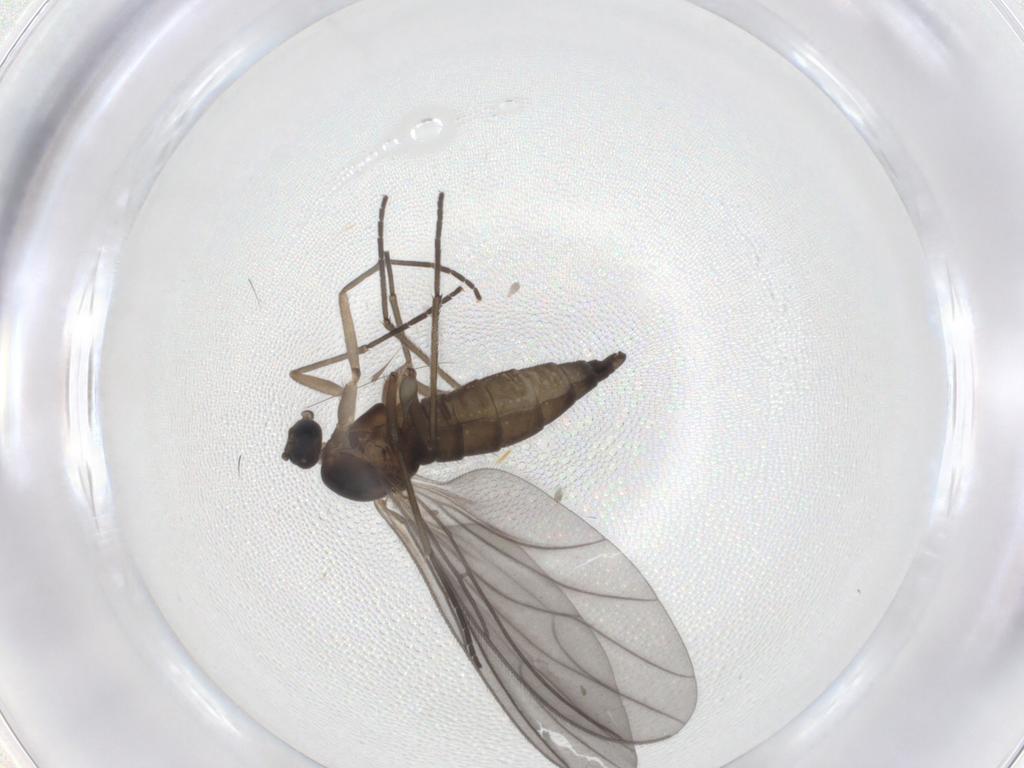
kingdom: Animalia
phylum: Arthropoda
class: Insecta
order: Diptera
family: Sciaridae
